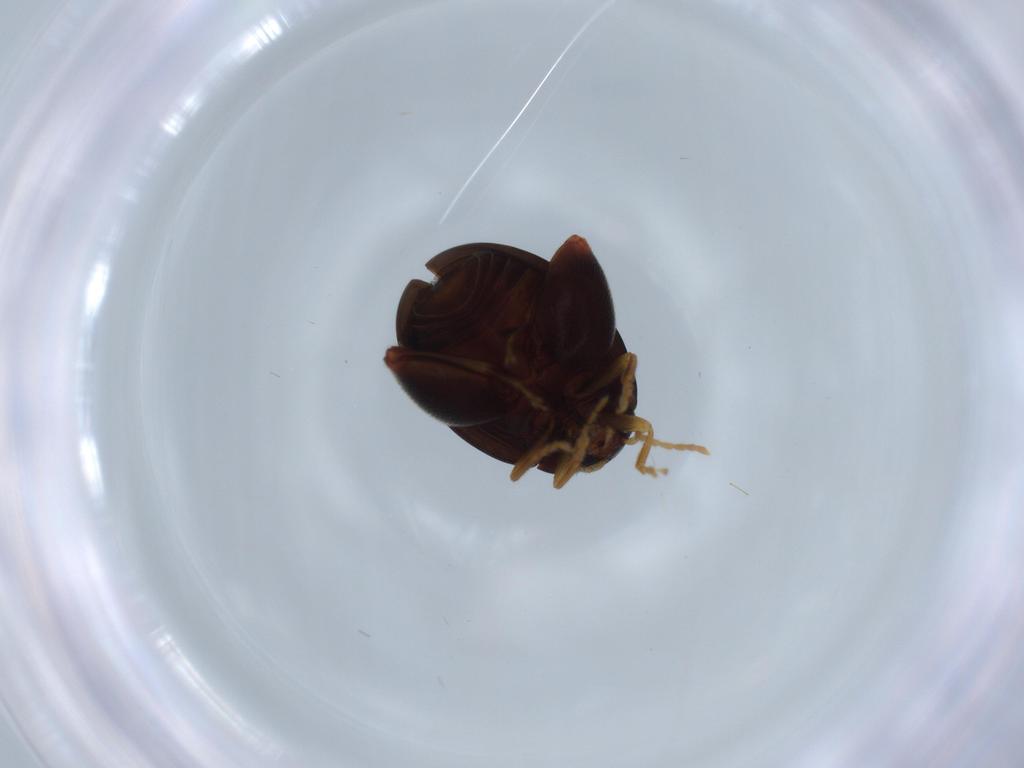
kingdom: Animalia
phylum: Arthropoda
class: Insecta
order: Coleoptera
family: Chrysomelidae
